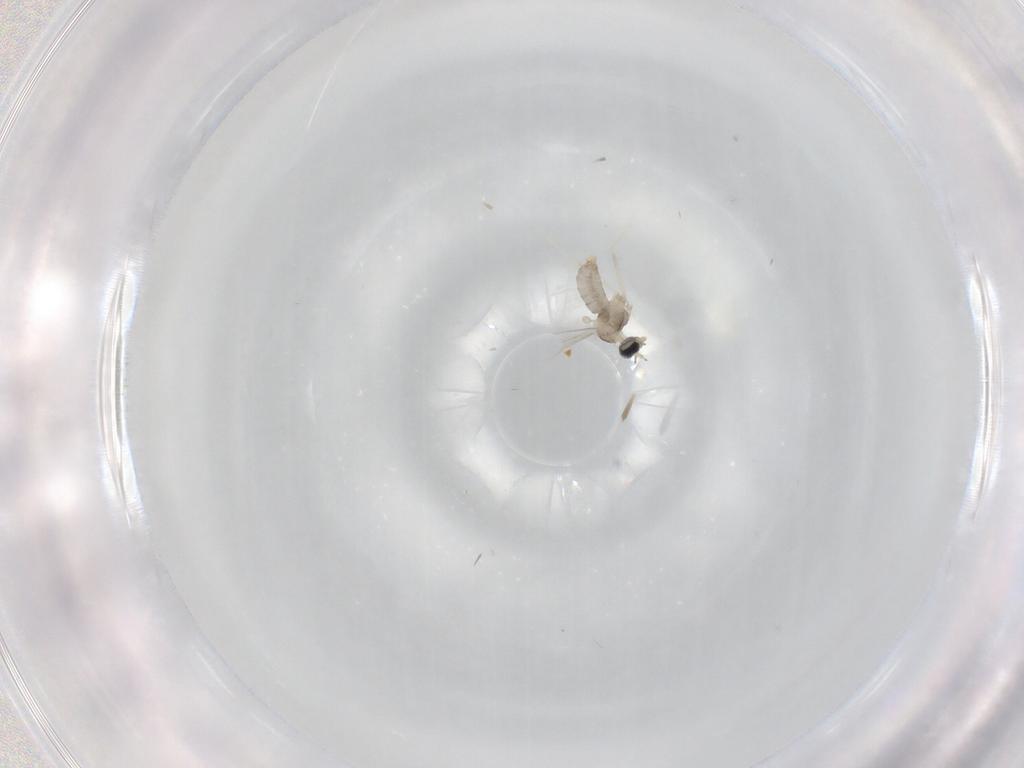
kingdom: Animalia
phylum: Arthropoda
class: Insecta
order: Diptera
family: Cecidomyiidae
